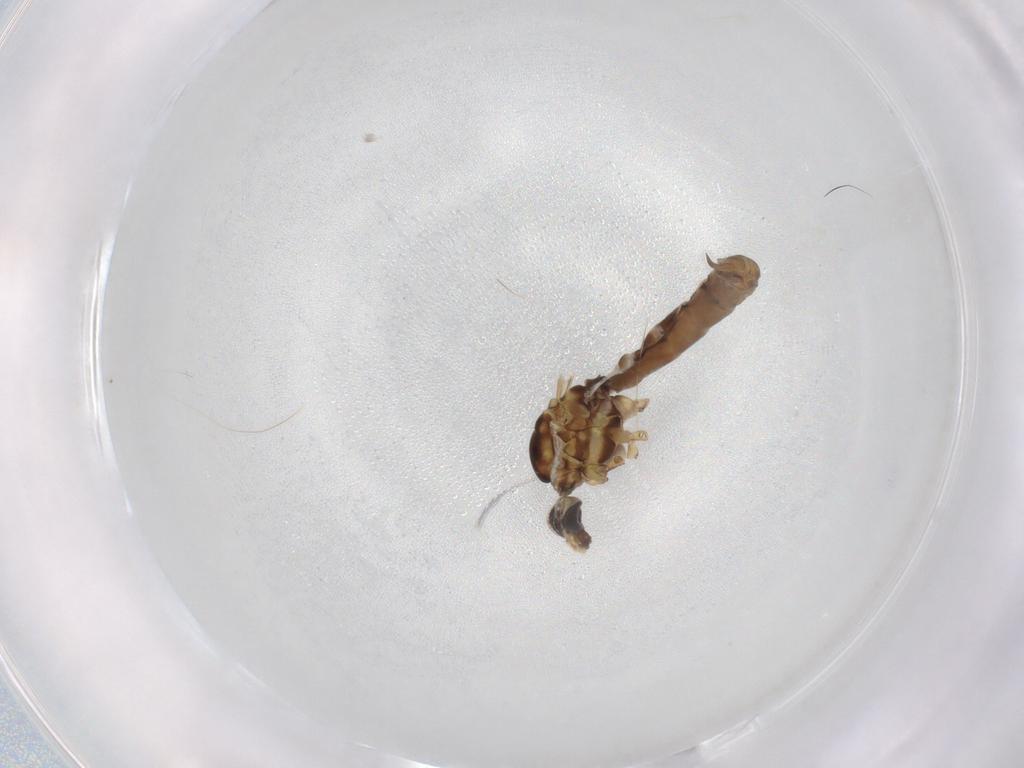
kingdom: Animalia
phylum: Arthropoda
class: Insecta
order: Diptera
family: Limoniidae
